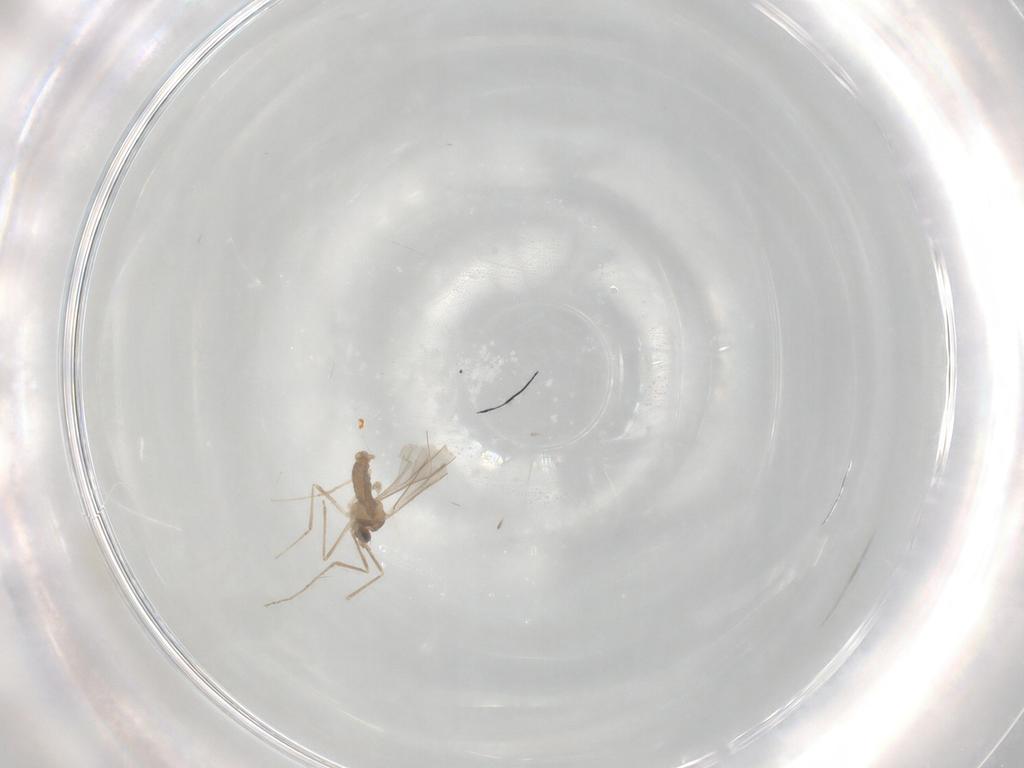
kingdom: Animalia
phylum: Arthropoda
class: Insecta
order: Diptera
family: Cecidomyiidae
